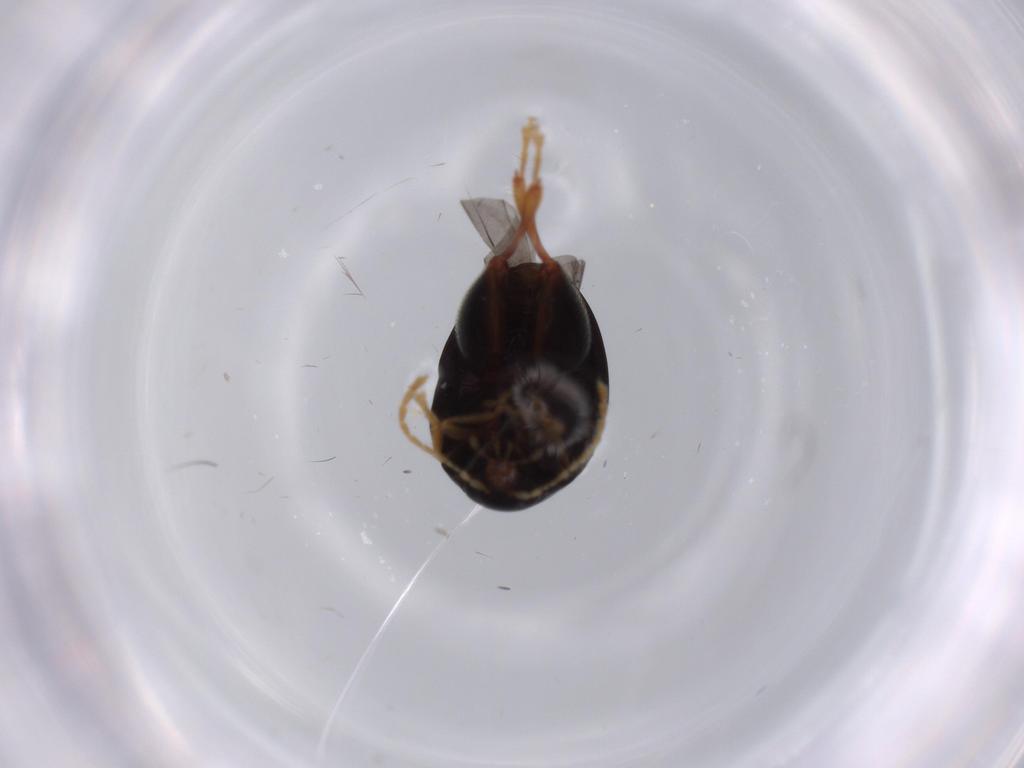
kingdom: Animalia
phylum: Arthropoda
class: Insecta
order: Coleoptera
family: Chrysomelidae
